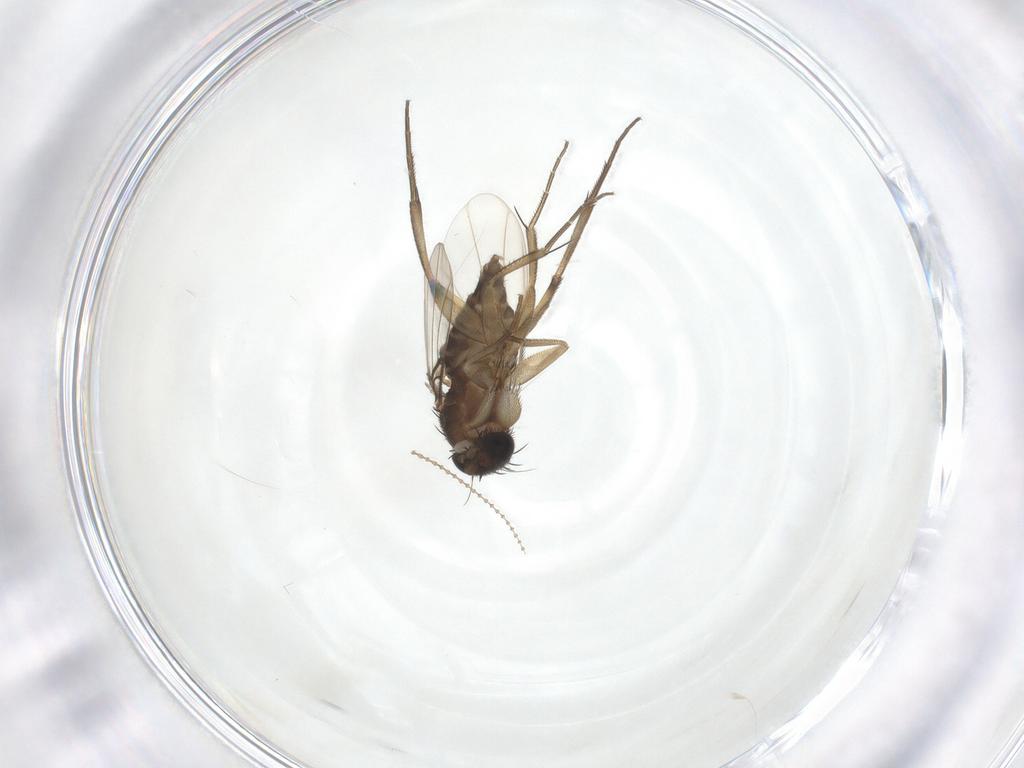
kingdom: Animalia
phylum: Arthropoda
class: Insecta
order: Diptera
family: Phoridae
